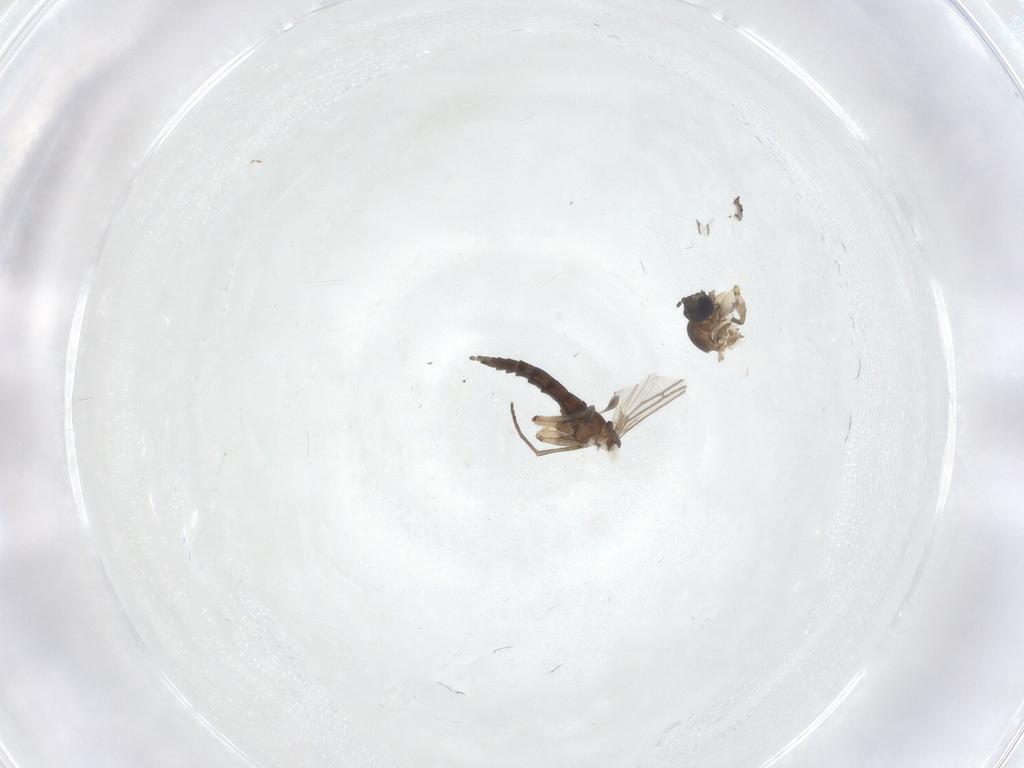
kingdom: Animalia
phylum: Arthropoda
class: Insecta
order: Diptera
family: Sciaridae
